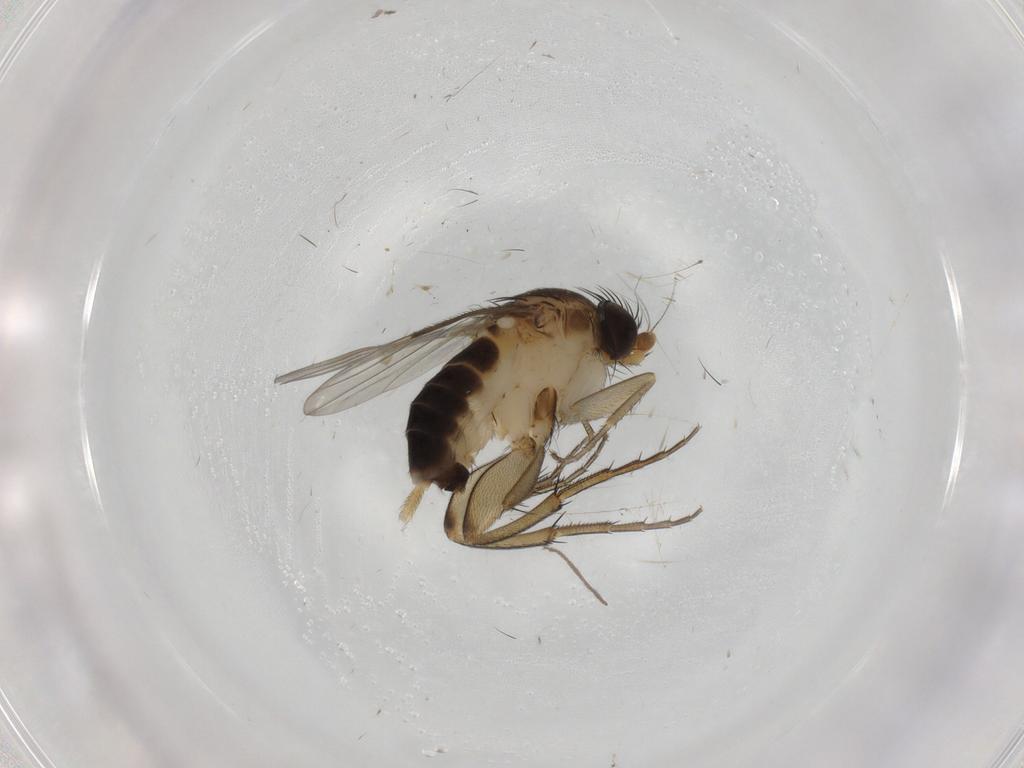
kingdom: Animalia
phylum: Arthropoda
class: Insecta
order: Diptera
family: Phoridae
